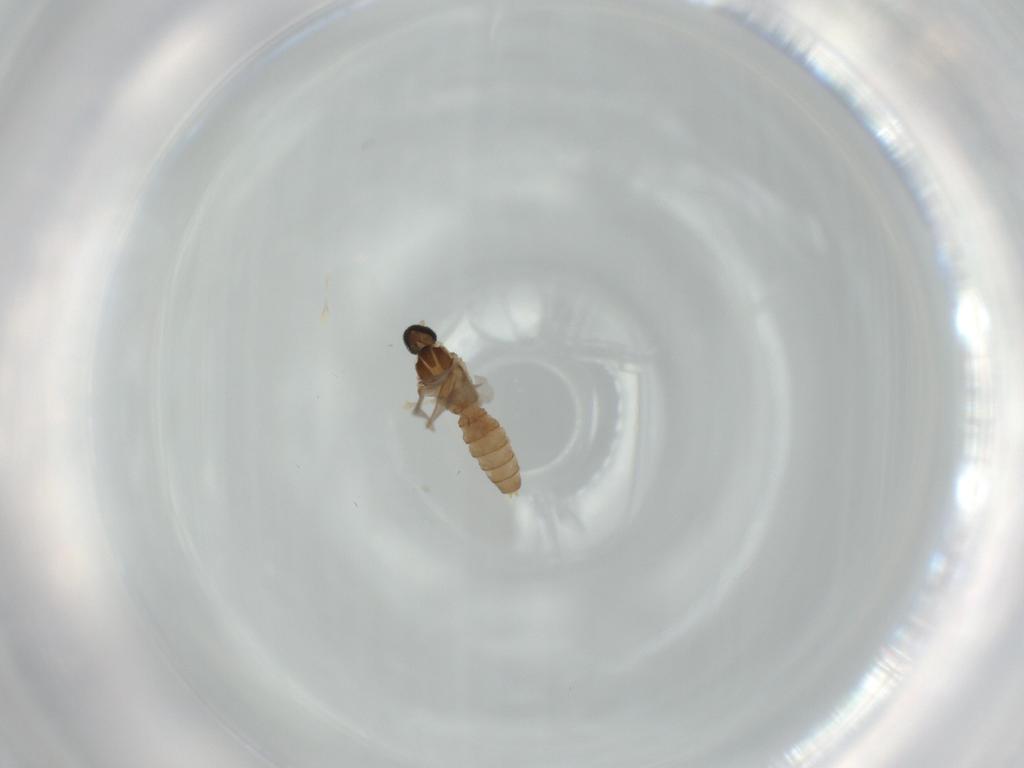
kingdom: Animalia
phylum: Arthropoda
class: Insecta
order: Diptera
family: Cecidomyiidae
